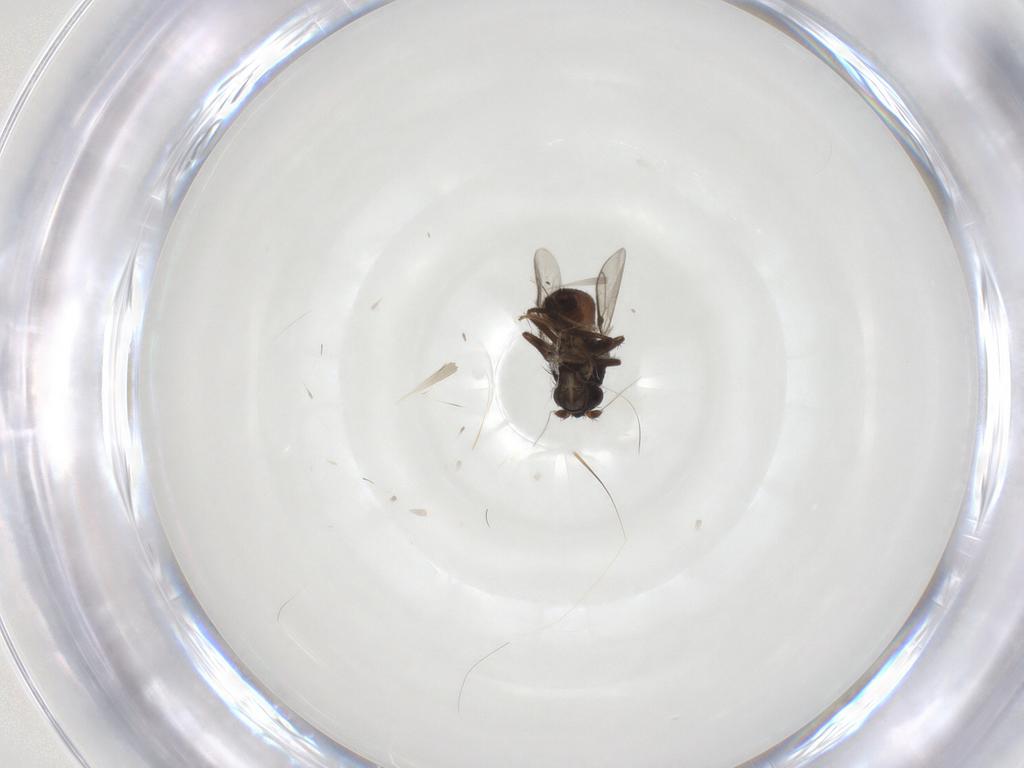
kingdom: Animalia
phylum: Arthropoda
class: Insecta
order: Diptera
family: Sphaeroceridae
